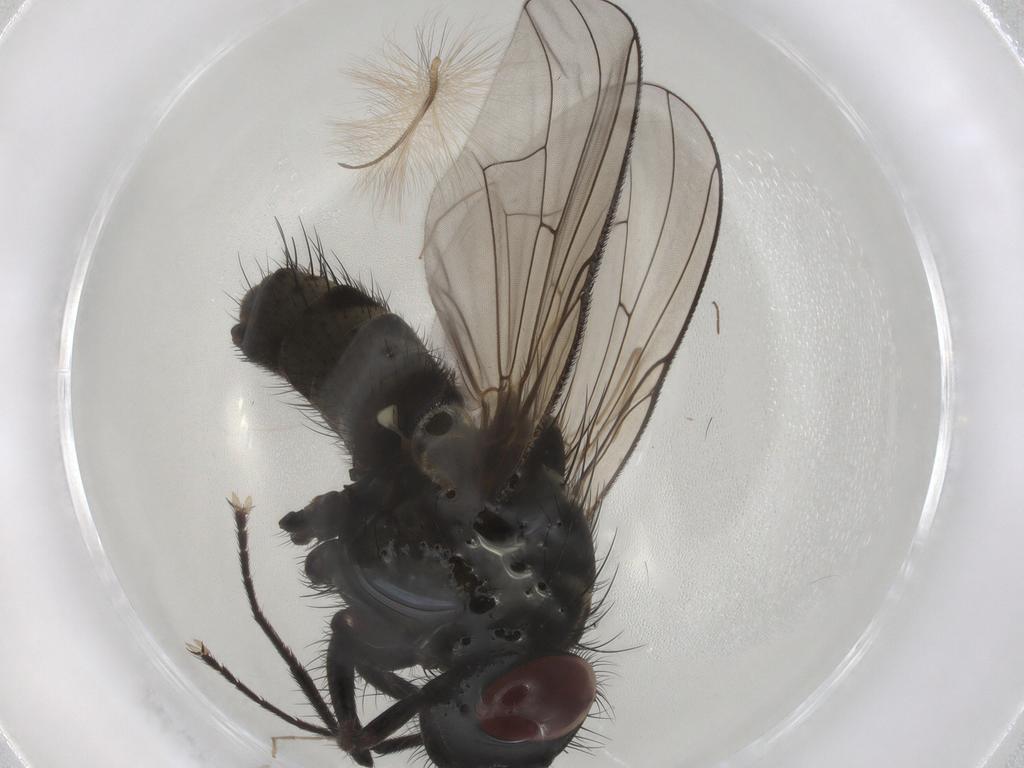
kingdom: Animalia
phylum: Arthropoda
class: Insecta
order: Diptera
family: Muscidae
